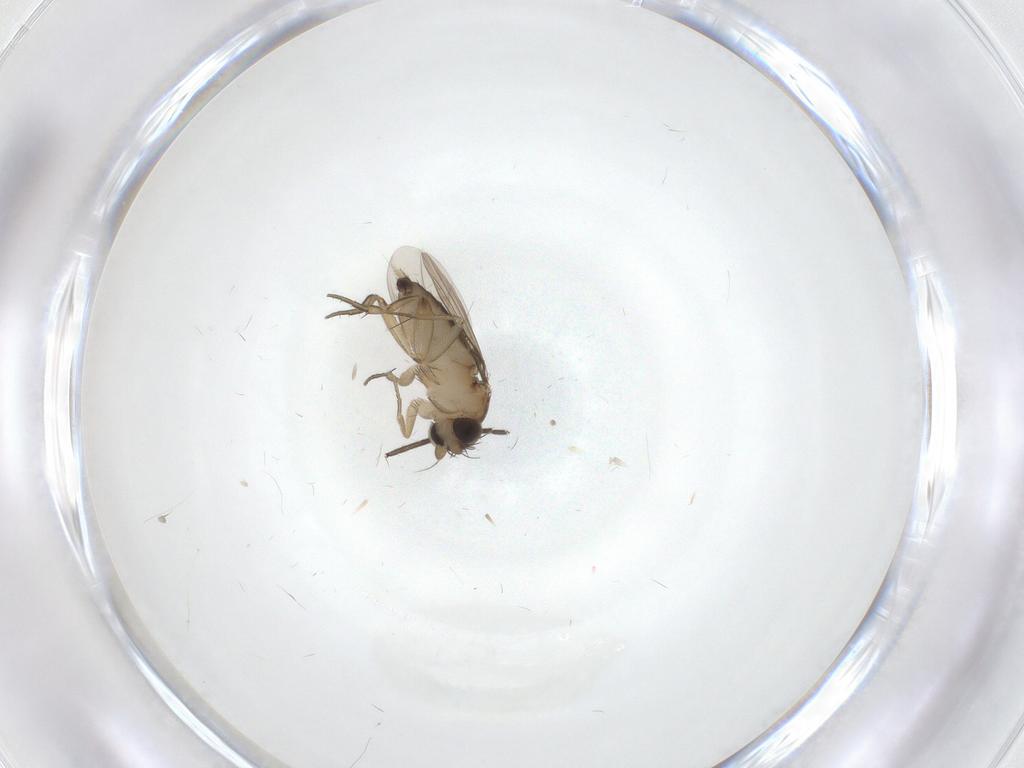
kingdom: Animalia
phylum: Arthropoda
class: Insecta
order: Diptera
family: Phoridae
